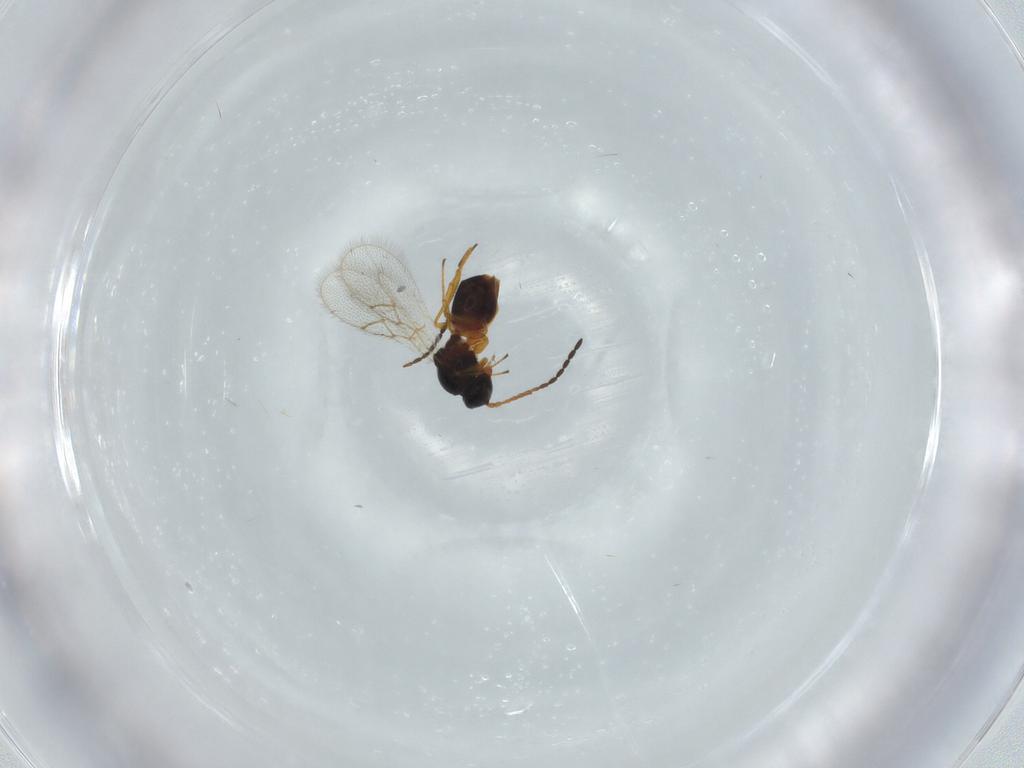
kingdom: Animalia
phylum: Arthropoda
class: Insecta
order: Hymenoptera
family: Figitidae
